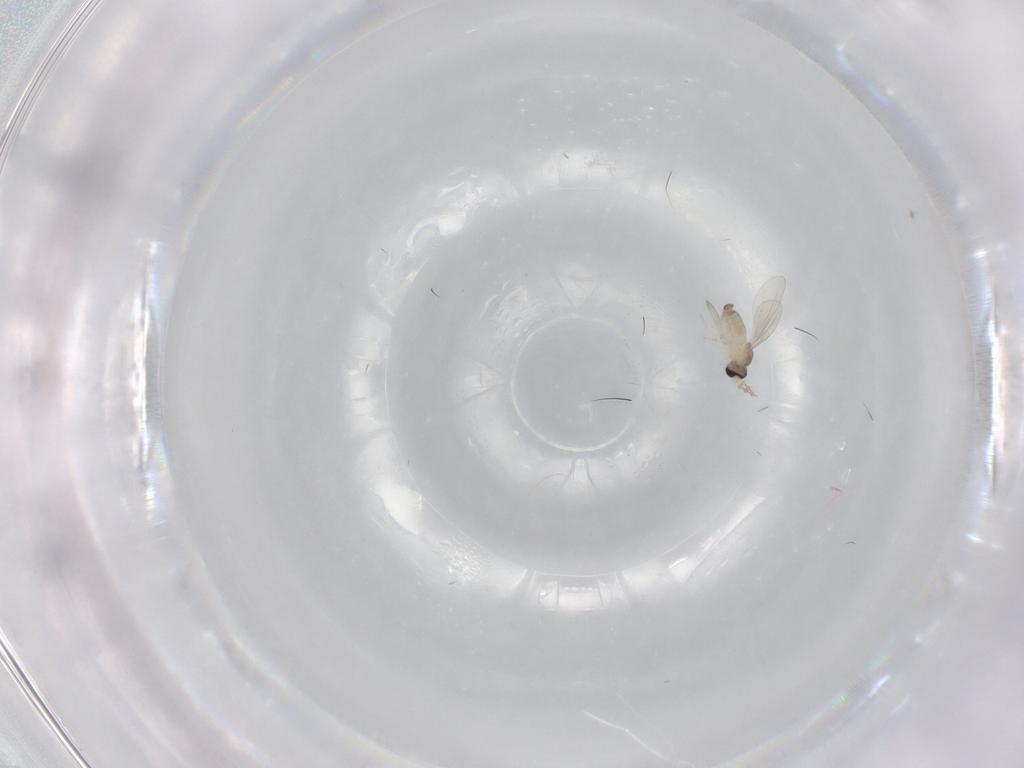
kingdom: Animalia
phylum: Arthropoda
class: Insecta
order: Diptera
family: Cecidomyiidae
